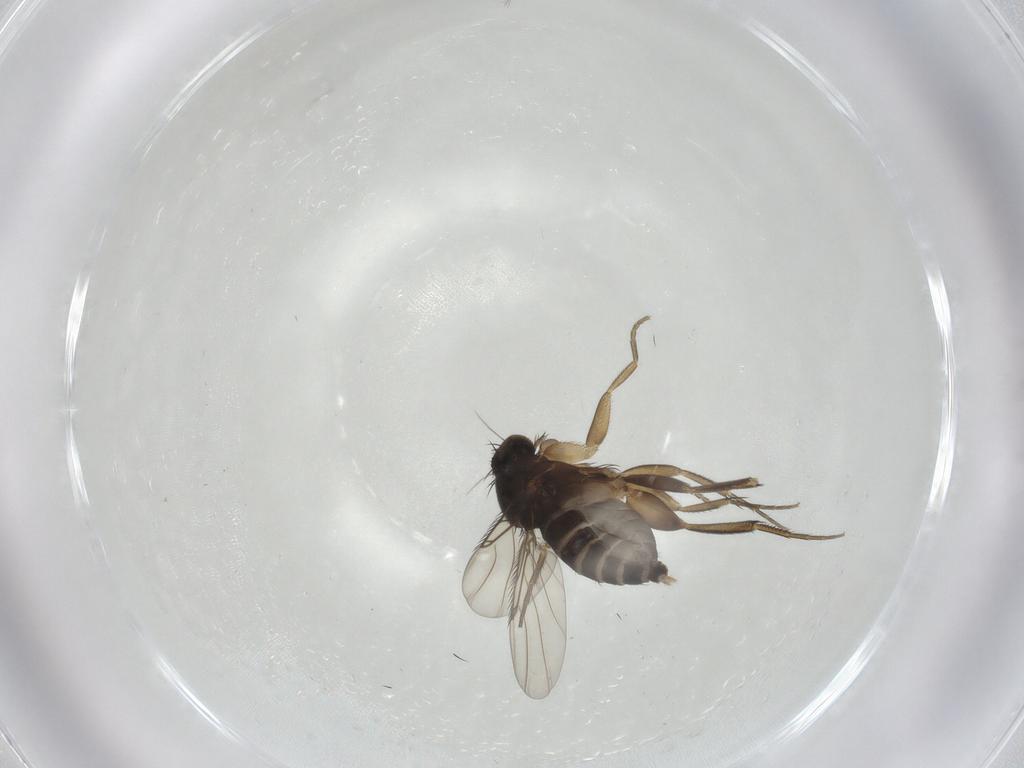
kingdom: Animalia
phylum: Arthropoda
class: Insecta
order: Diptera
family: Phoridae
